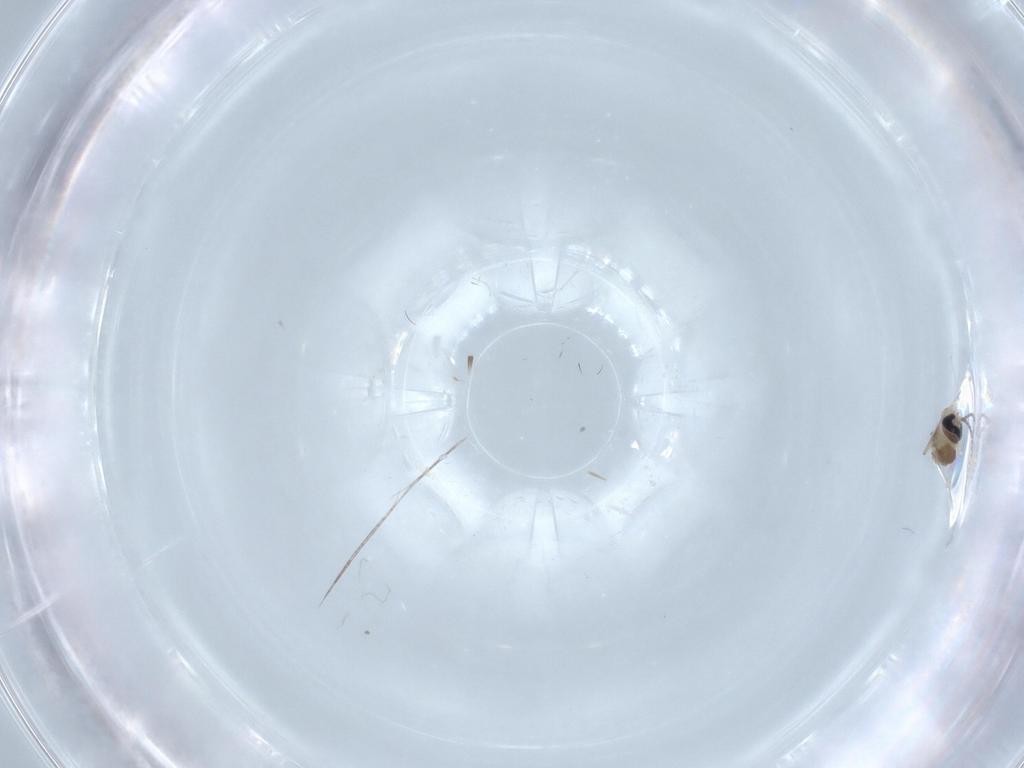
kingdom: Animalia
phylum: Arthropoda
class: Insecta
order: Diptera
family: Cecidomyiidae
